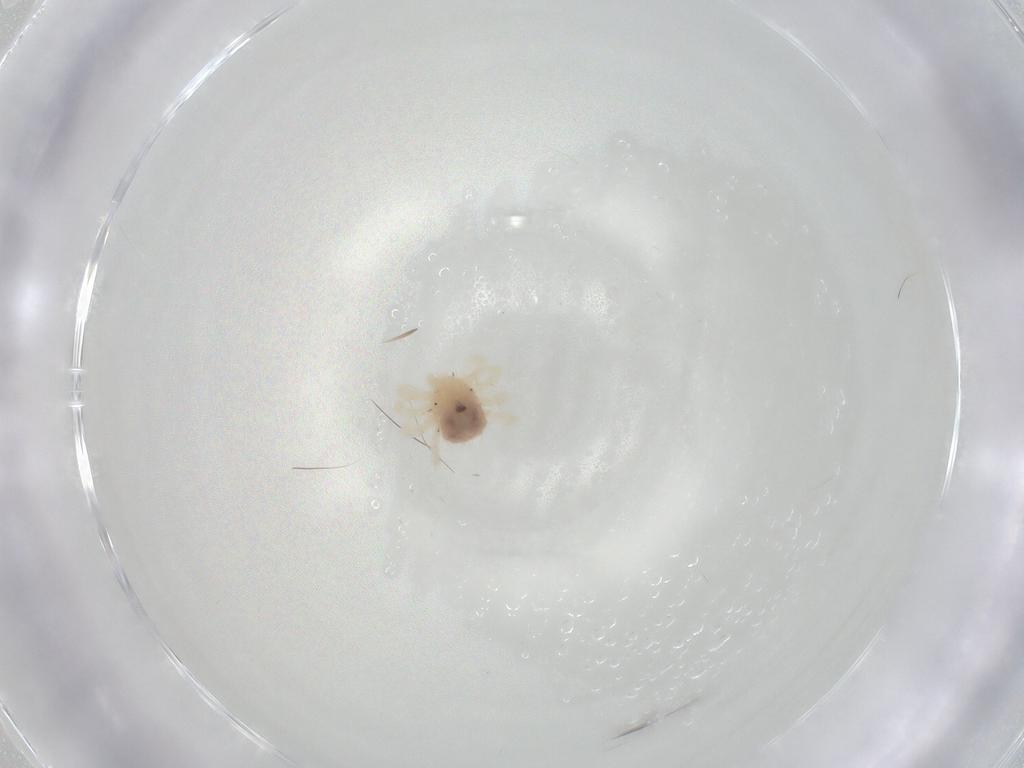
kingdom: Animalia
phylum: Arthropoda
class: Arachnida
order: Trombidiformes
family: Anystidae
